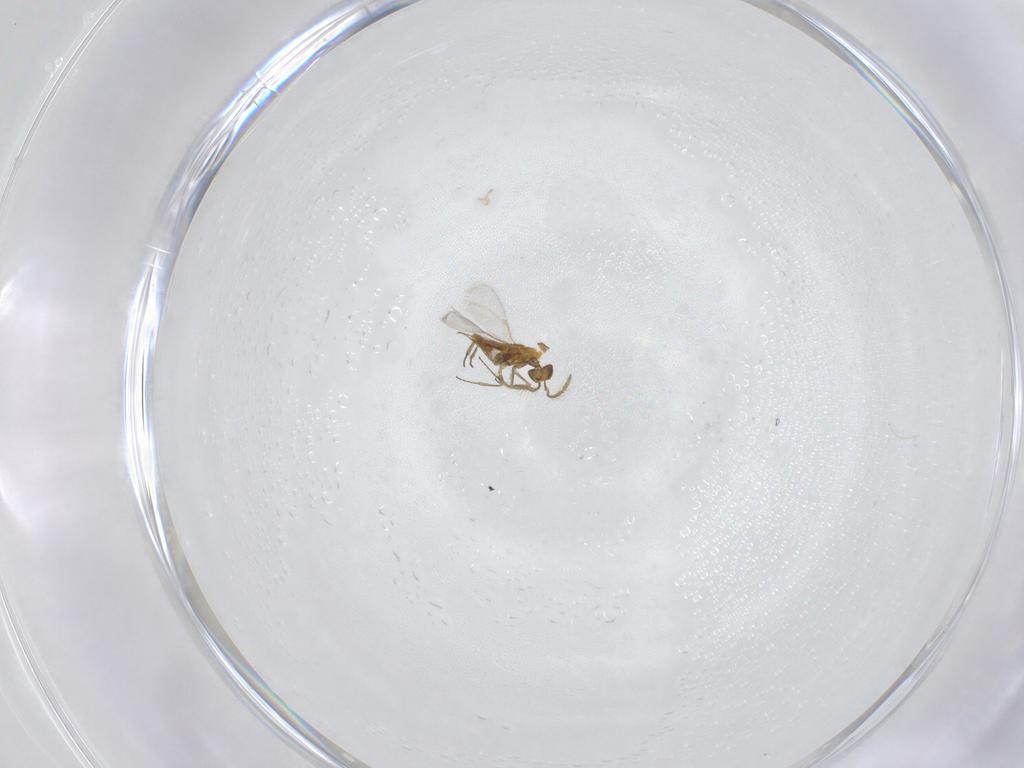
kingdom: Animalia
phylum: Arthropoda
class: Insecta
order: Hymenoptera
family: Aphelinidae
